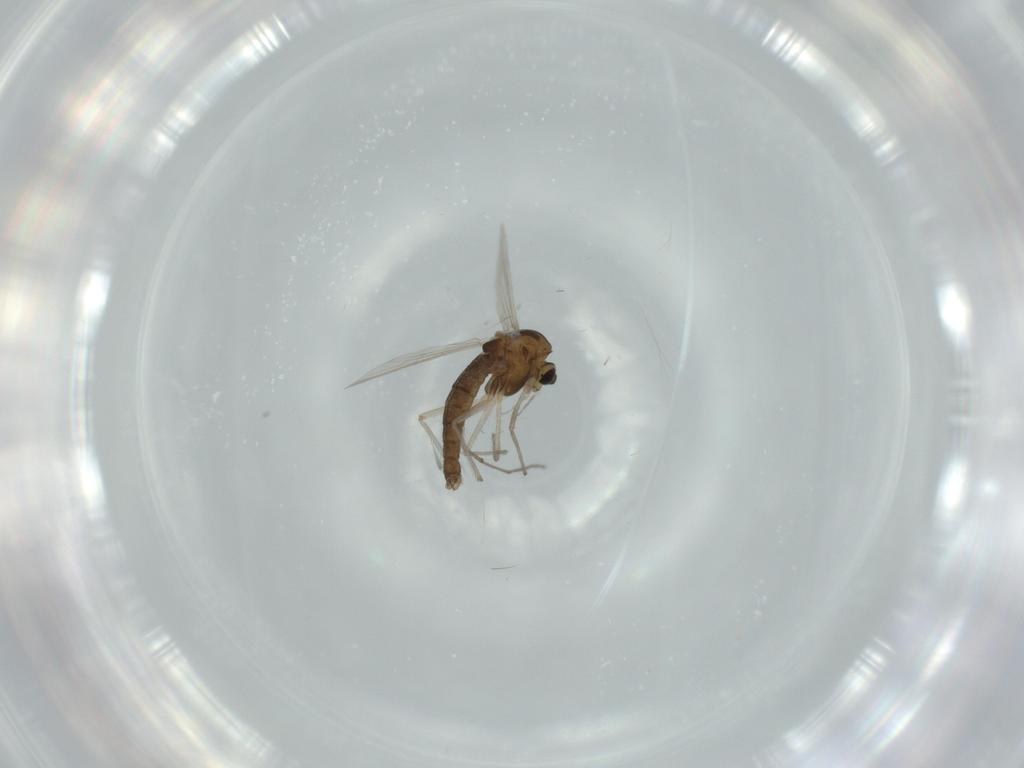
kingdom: Animalia
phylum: Arthropoda
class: Insecta
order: Diptera
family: Chironomidae
